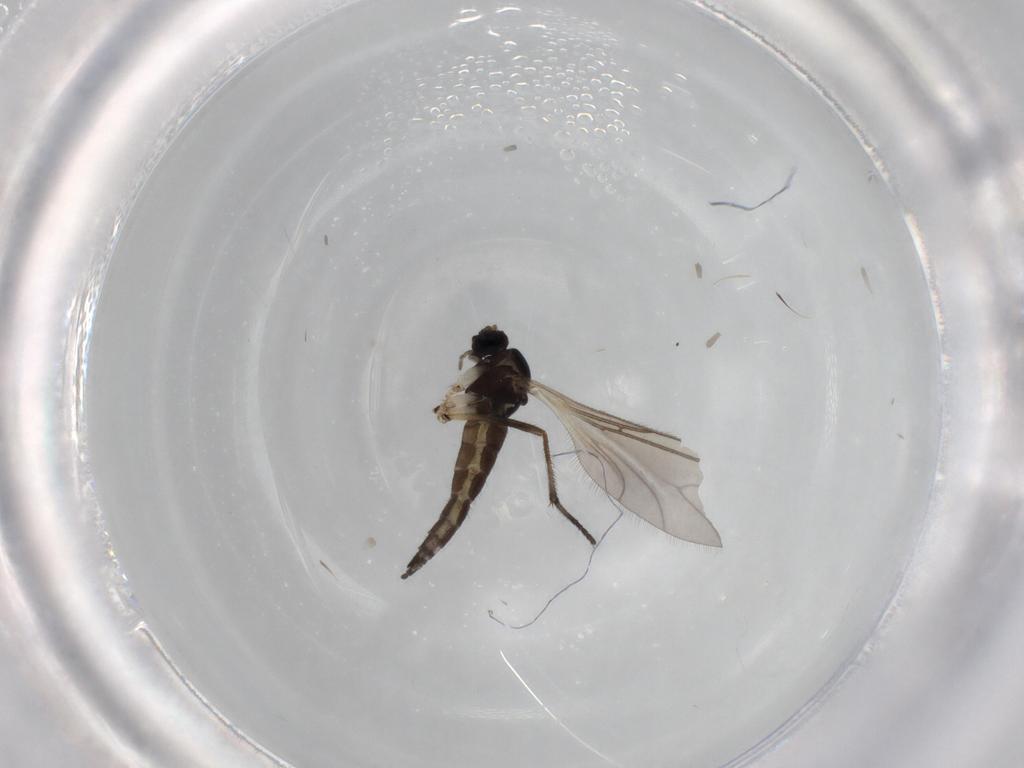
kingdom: Animalia
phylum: Arthropoda
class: Insecta
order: Diptera
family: Sciaridae
